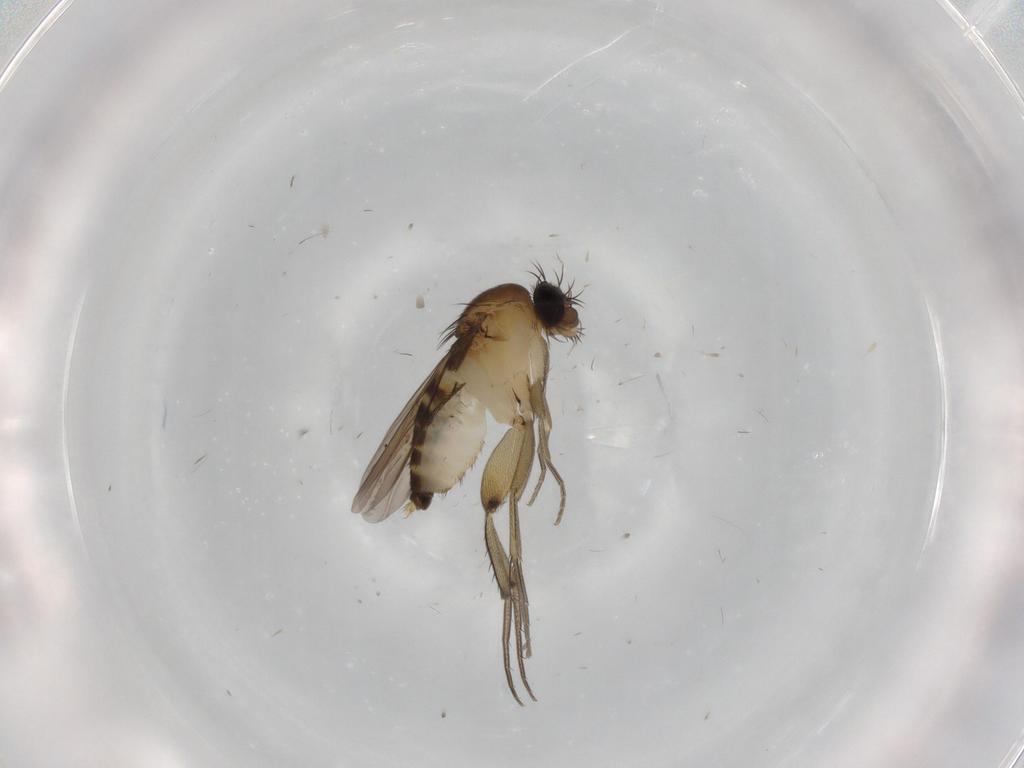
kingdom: Animalia
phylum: Arthropoda
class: Insecta
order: Diptera
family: Phoridae
